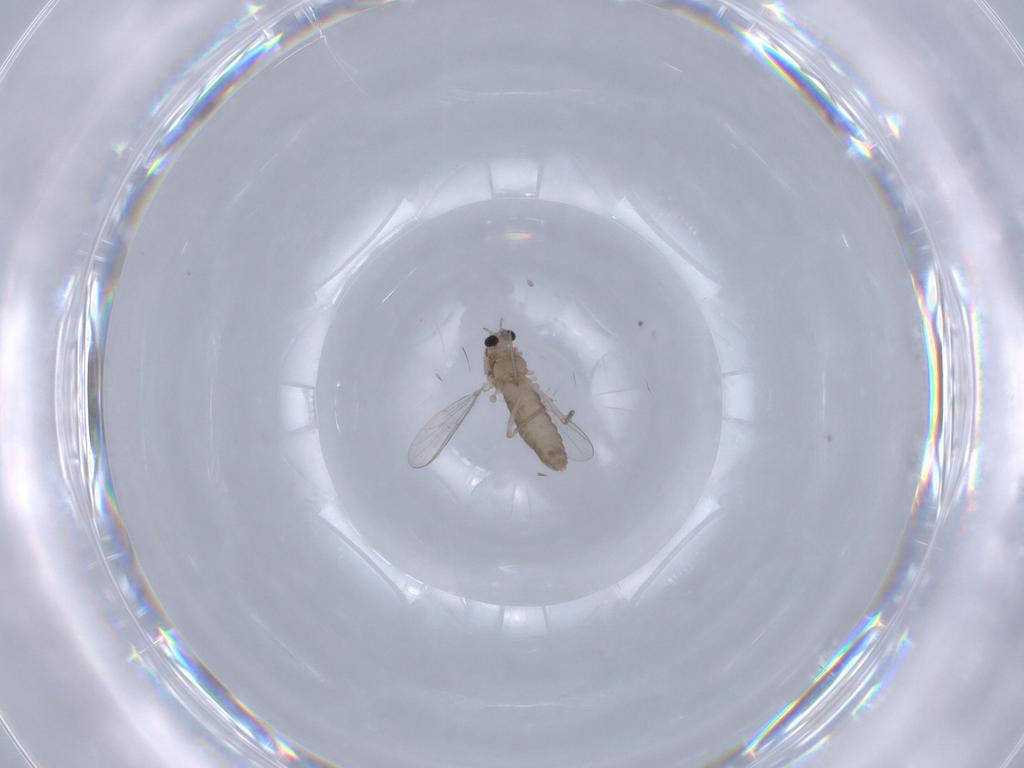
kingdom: Animalia
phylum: Arthropoda
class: Insecta
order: Diptera
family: Chironomidae
